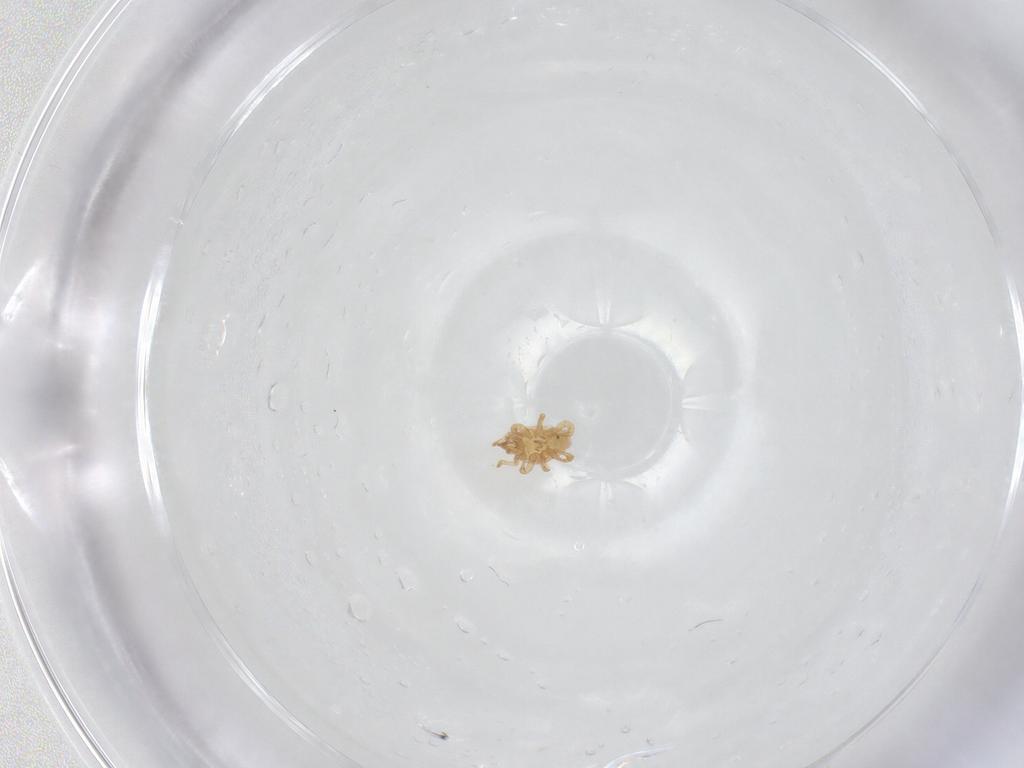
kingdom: Animalia
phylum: Arthropoda
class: Arachnida
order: Mesostigmata
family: Parasitidae
